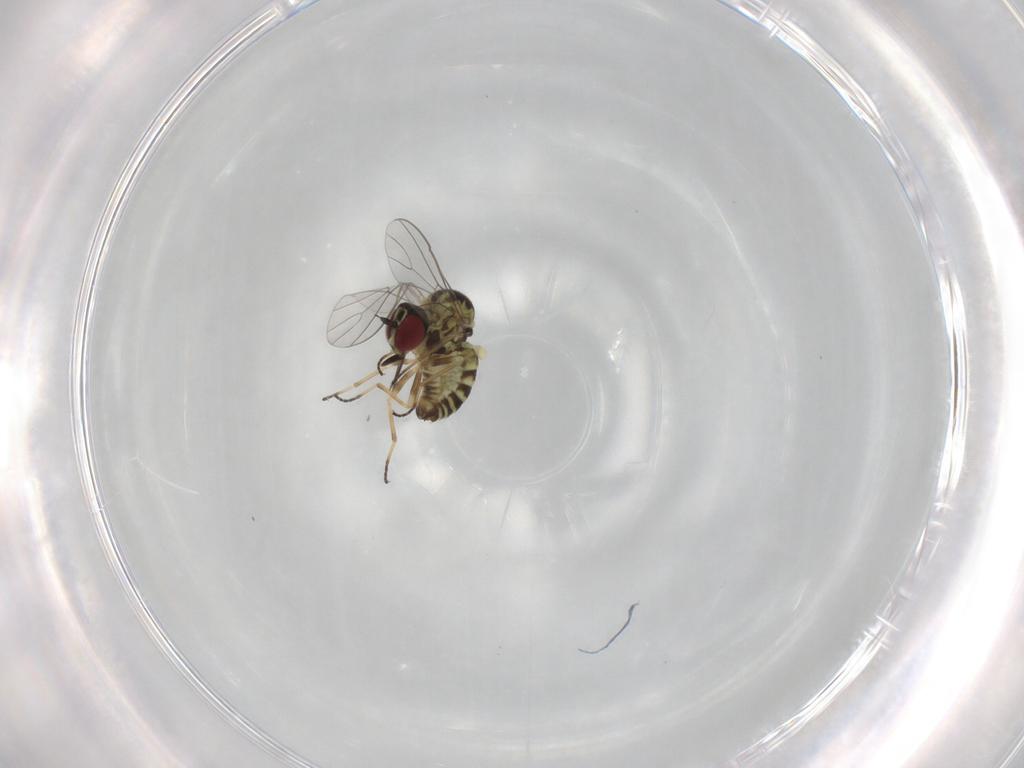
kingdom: Animalia
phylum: Arthropoda
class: Insecta
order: Diptera
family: Bombyliidae
